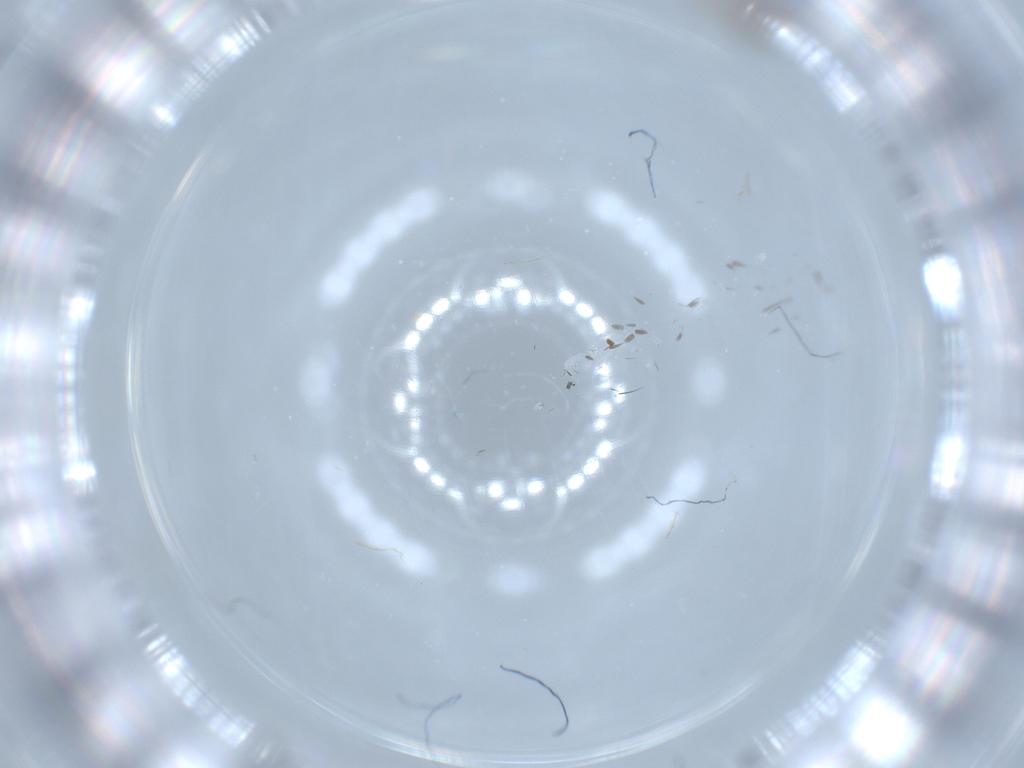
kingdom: Animalia
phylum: Arthropoda
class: Insecta
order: Diptera
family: Cecidomyiidae
